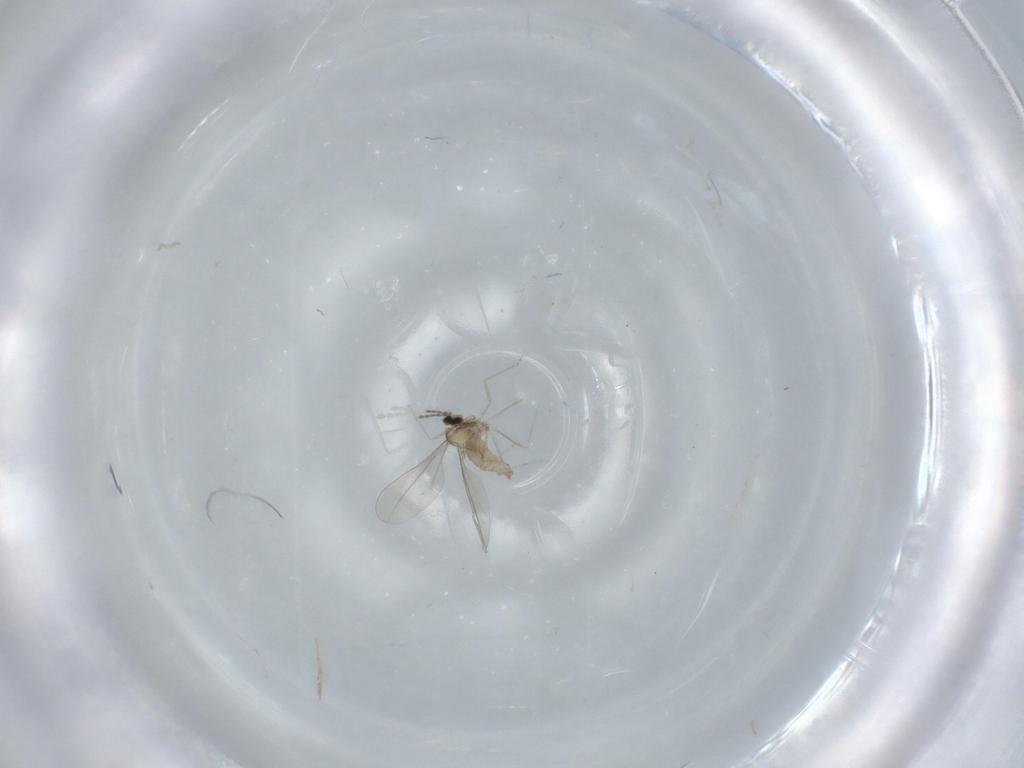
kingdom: Animalia
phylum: Arthropoda
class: Insecta
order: Diptera
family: Cecidomyiidae
